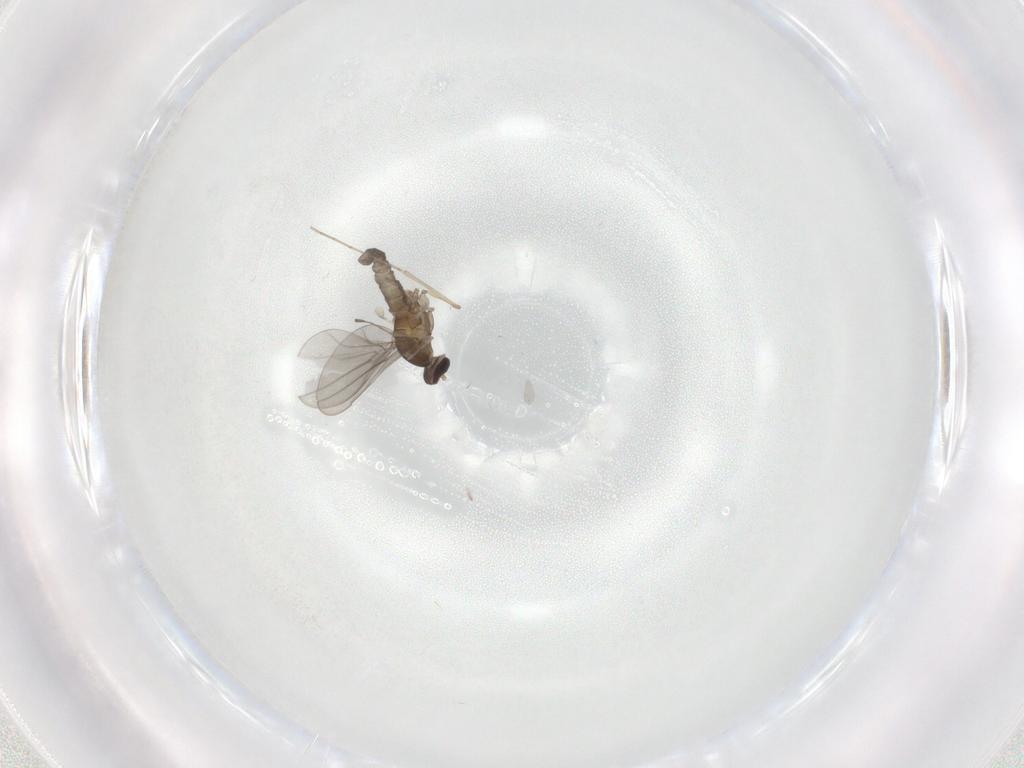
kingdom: Animalia
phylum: Arthropoda
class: Insecta
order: Diptera
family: Cecidomyiidae
